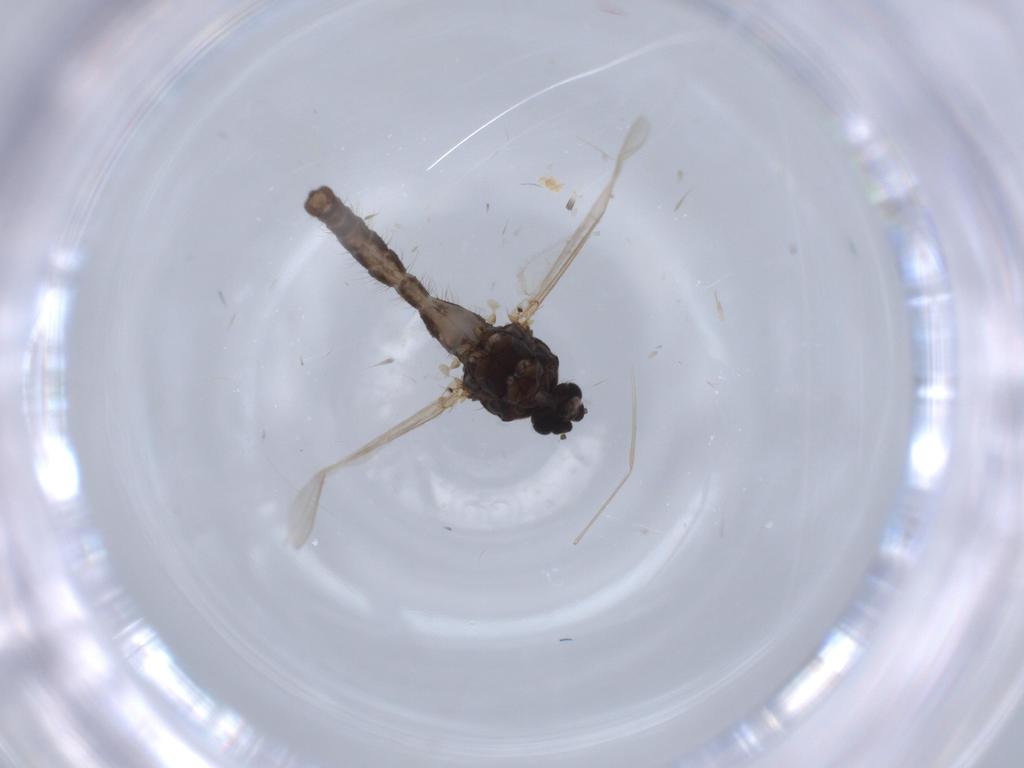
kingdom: Animalia
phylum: Arthropoda
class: Insecta
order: Diptera
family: Ceratopogonidae
